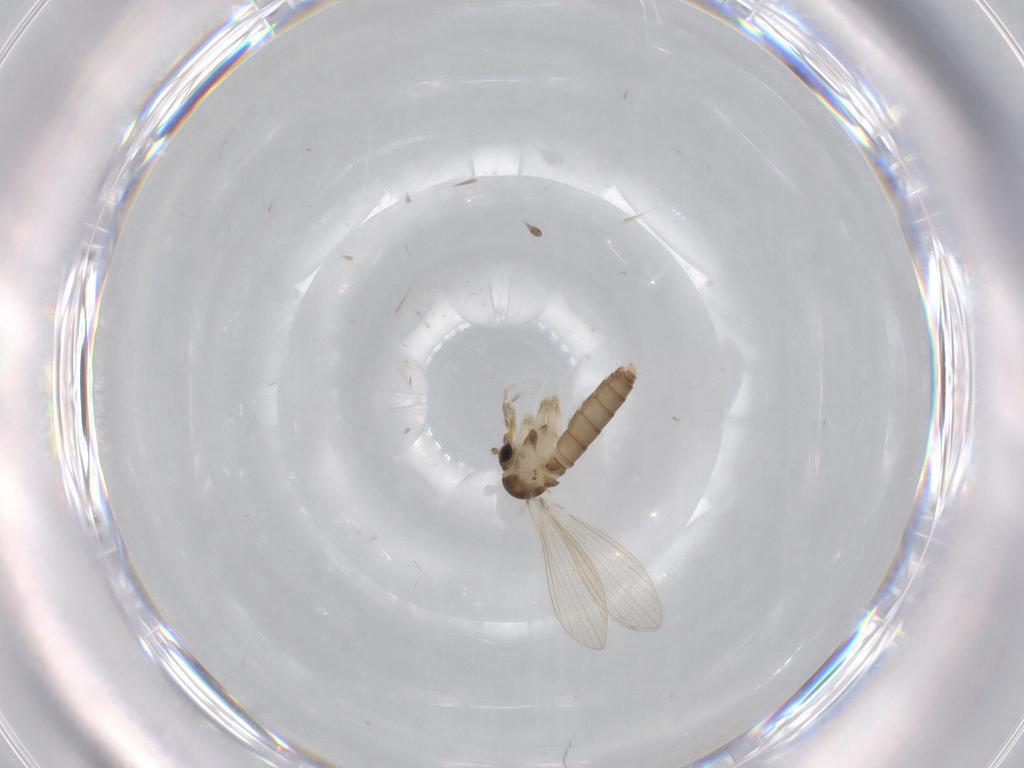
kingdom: Animalia
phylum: Arthropoda
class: Insecta
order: Diptera
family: Psychodidae
